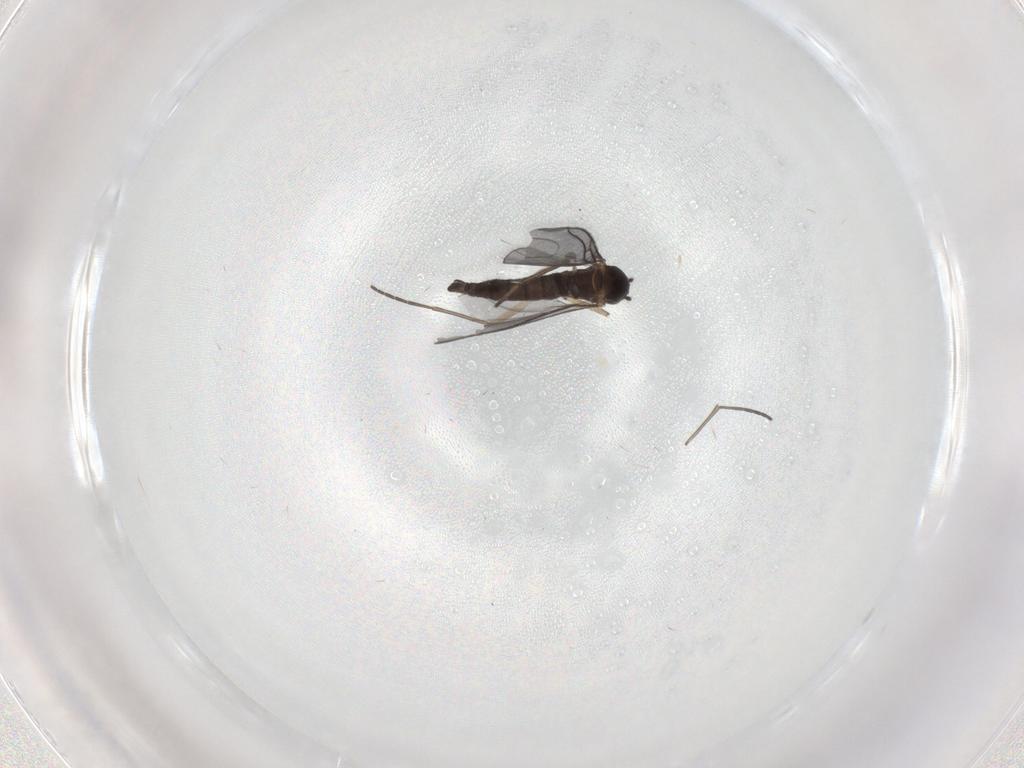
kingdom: Animalia
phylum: Arthropoda
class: Insecta
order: Diptera
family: Sciaridae
